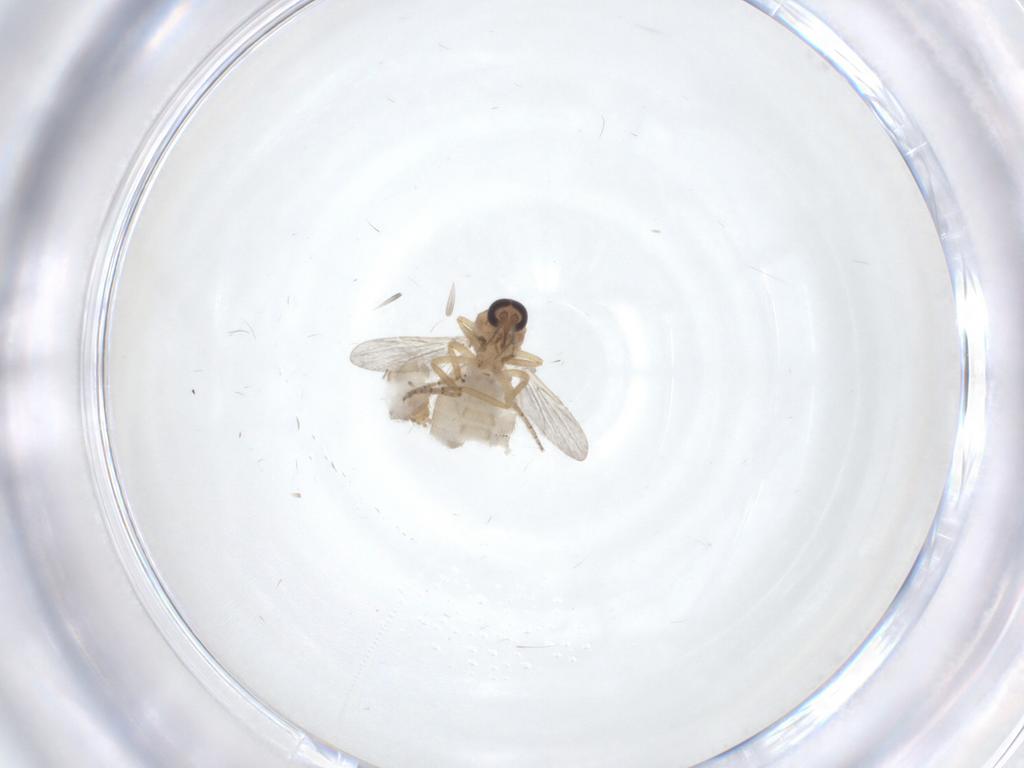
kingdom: Animalia
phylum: Arthropoda
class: Insecta
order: Diptera
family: Ceratopogonidae
